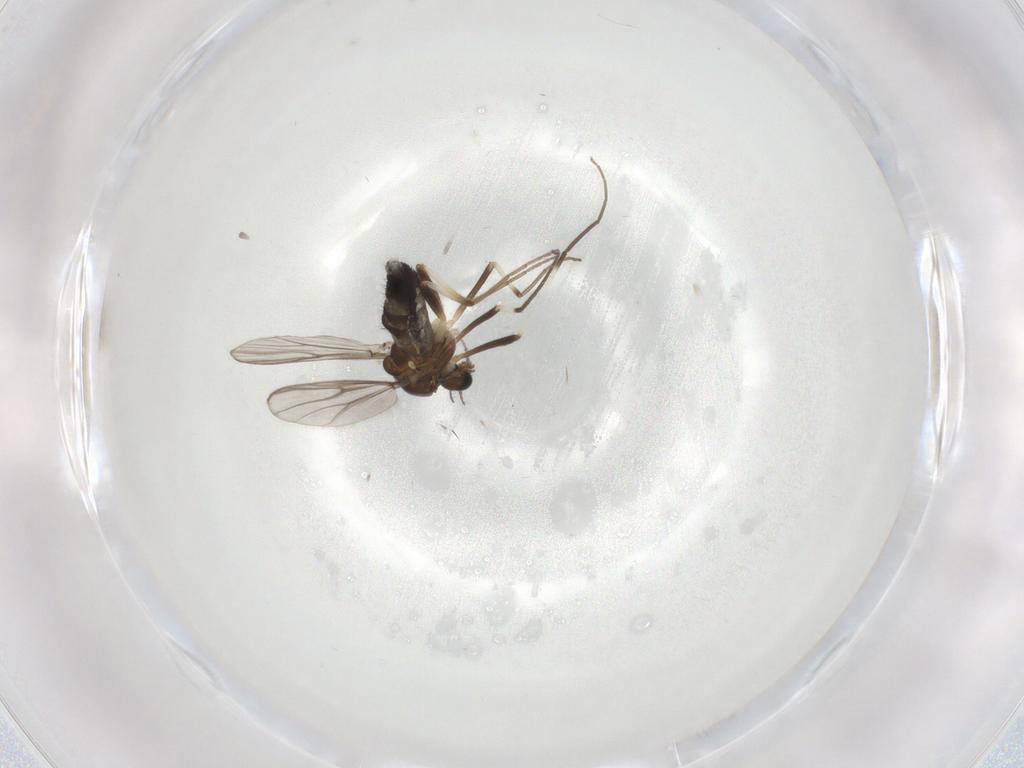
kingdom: Animalia
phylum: Arthropoda
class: Insecta
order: Diptera
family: Chironomidae
